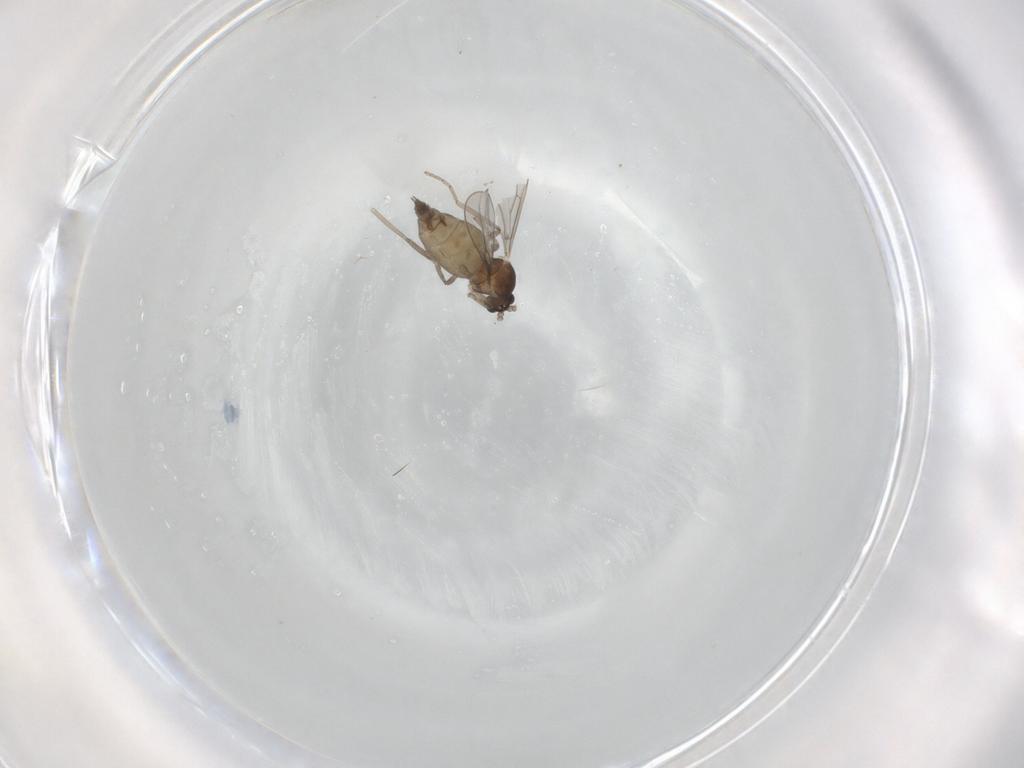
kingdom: Animalia
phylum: Arthropoda
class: Insecta
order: Diptera
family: Cecidomyiidae
